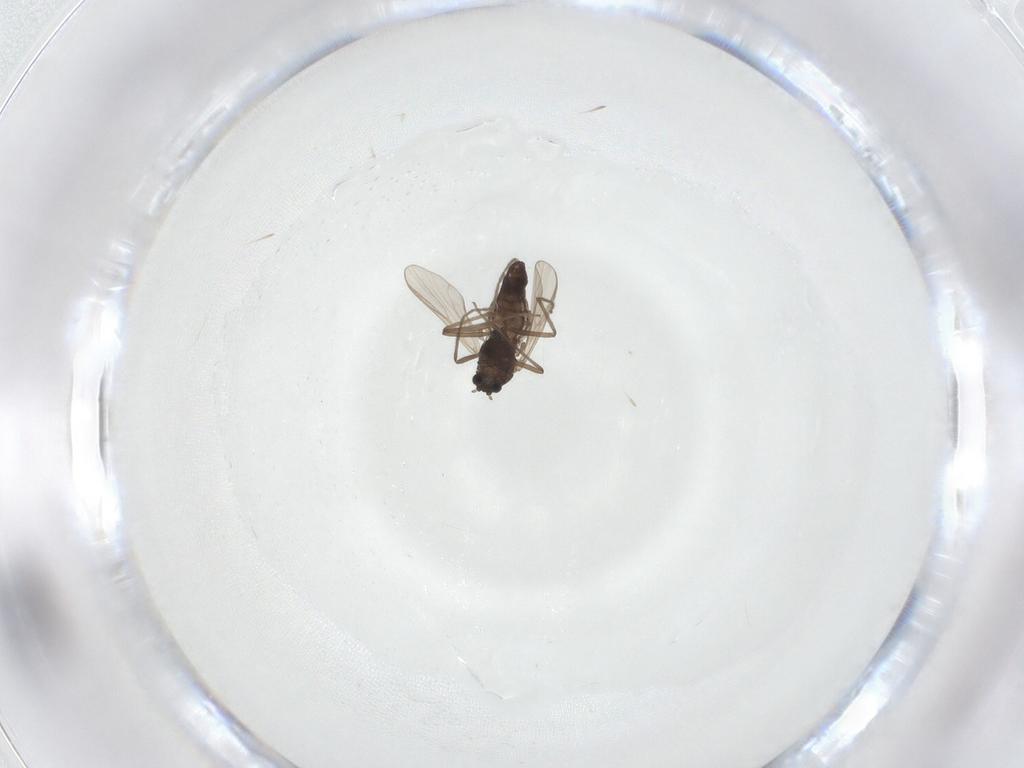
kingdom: Animalia
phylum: Arthropoda
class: Insecta
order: Diptera
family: Chironomidae
